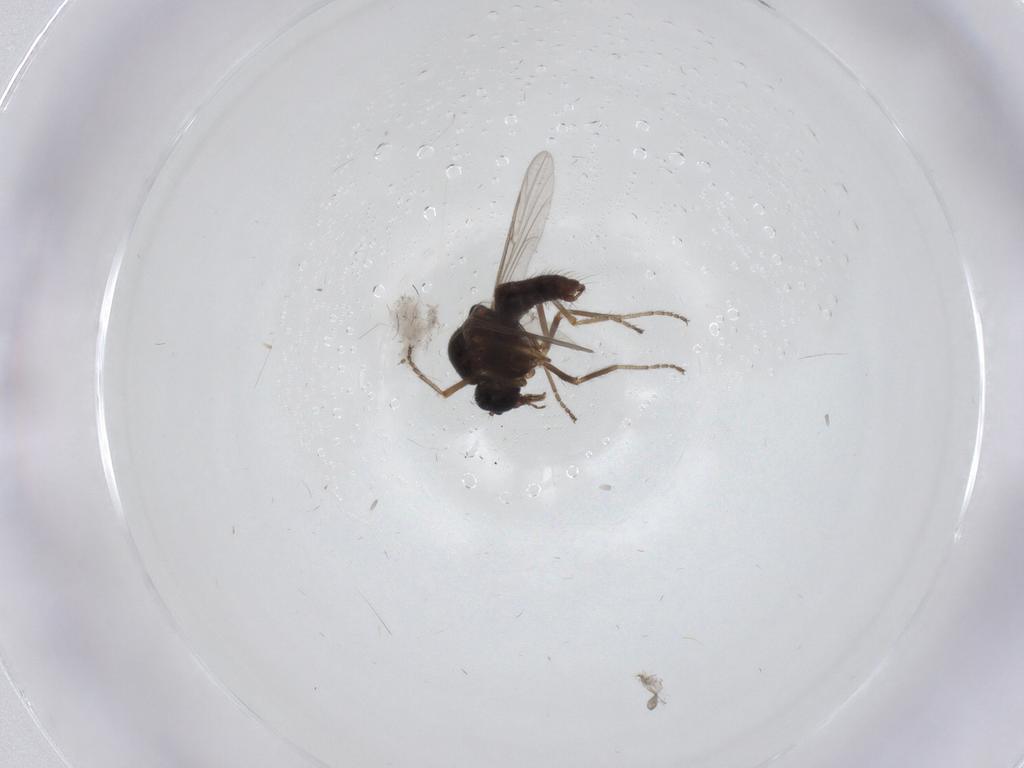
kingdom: Animalia
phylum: Arthropoda
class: Insecta
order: Diptera
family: Ceratopogonidae
